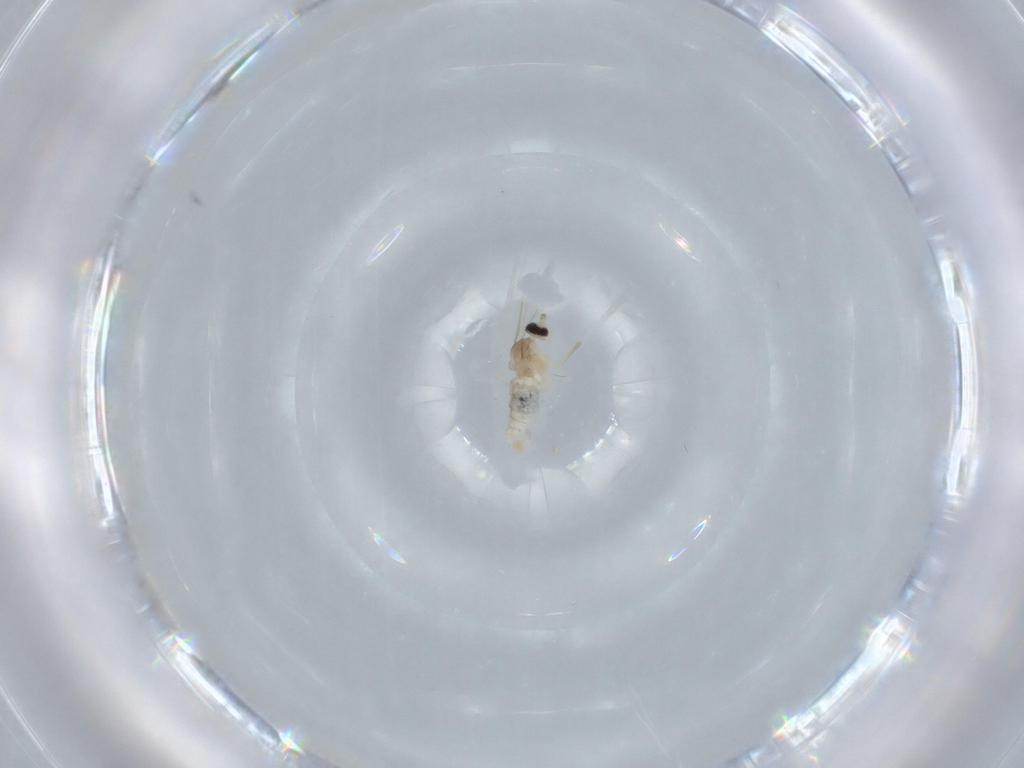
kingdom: Animalia
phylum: Arthropoda
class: Insecta
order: Diptera
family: Cecidomyiidae
